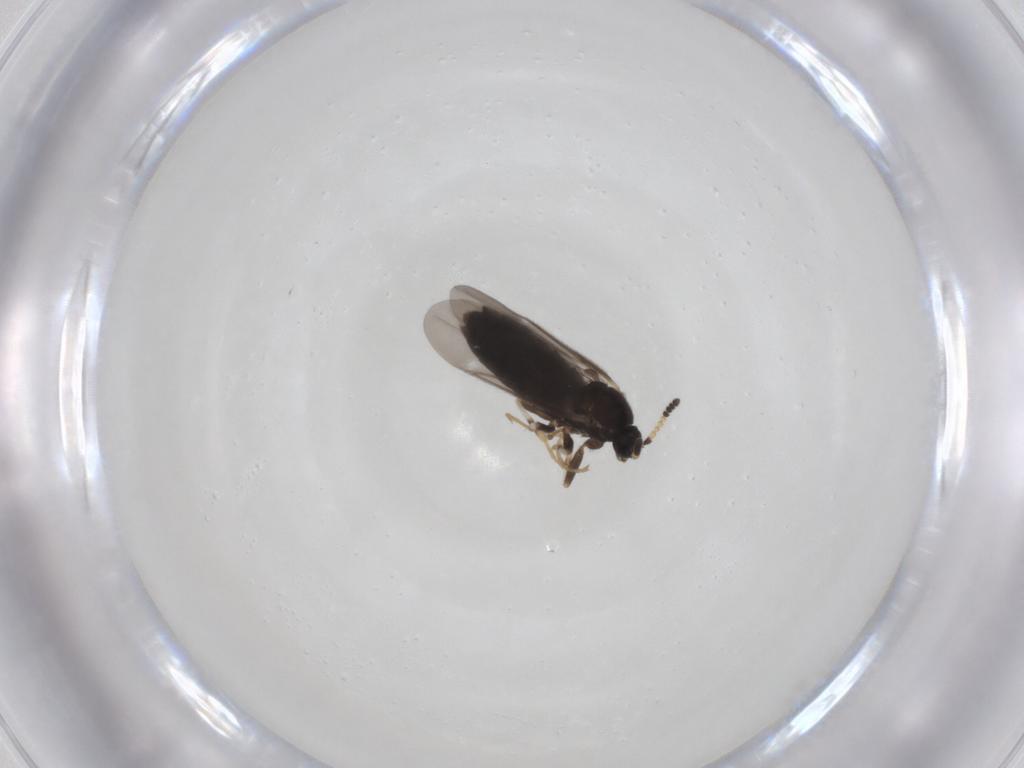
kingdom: Animalia
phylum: Arthropoda
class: Insecta
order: Diptera
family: Scatopsidae
